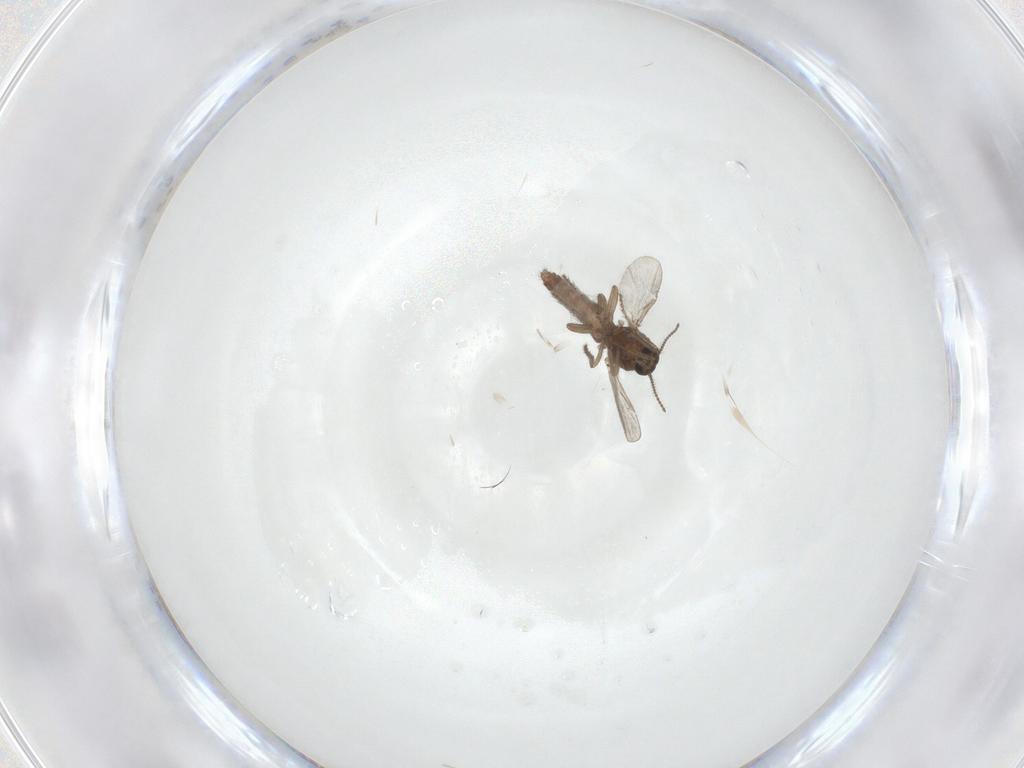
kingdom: Animalia
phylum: Arthropoda
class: Insecta
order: Diptera
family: Ceratopogonidae
